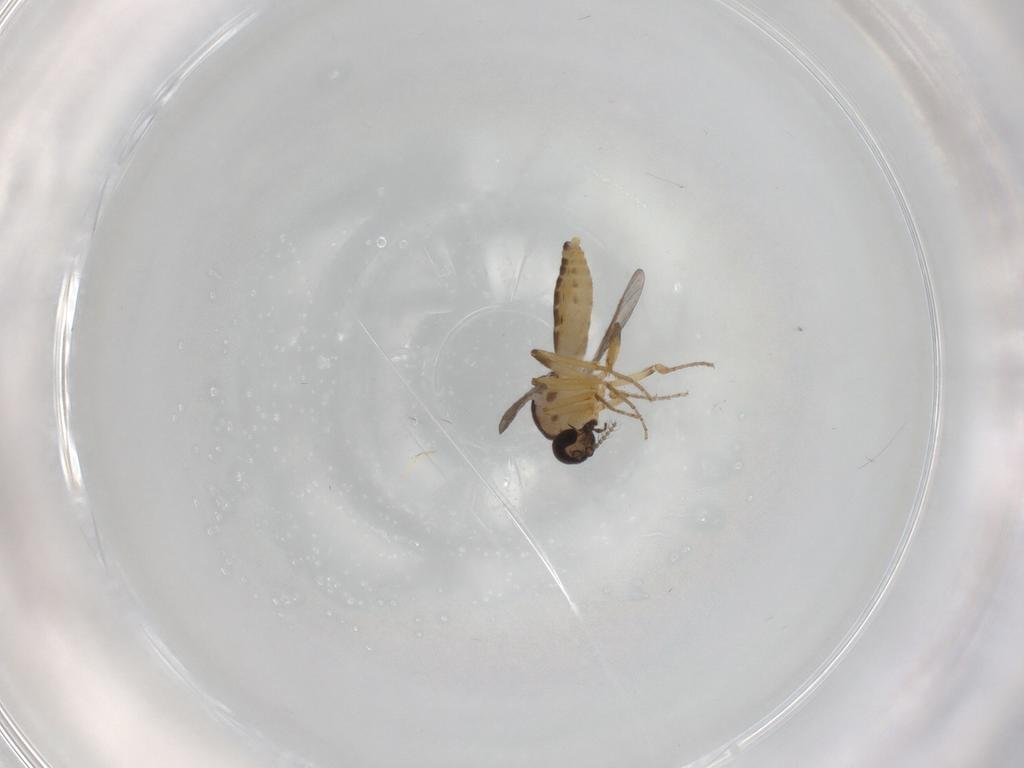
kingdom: Animalia
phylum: Arthropoda
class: Insecta
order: Diptera
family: Ceratopogonidae
